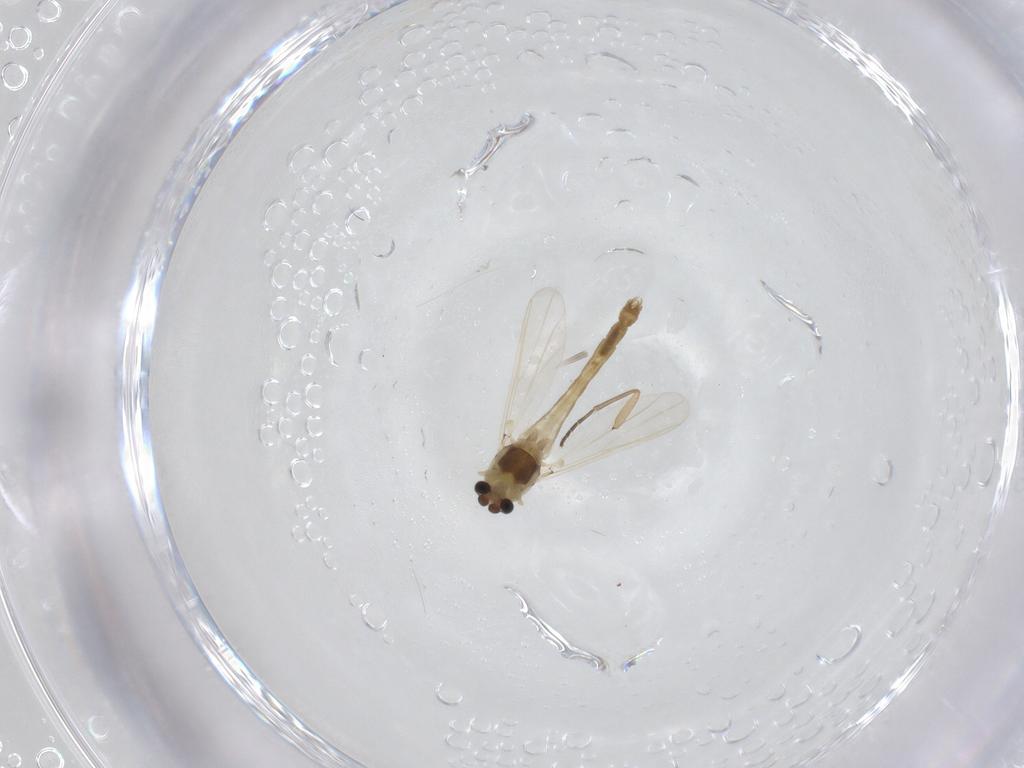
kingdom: Animalia
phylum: Arthropoda
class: Insecta
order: Diptera
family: Chironomidae
